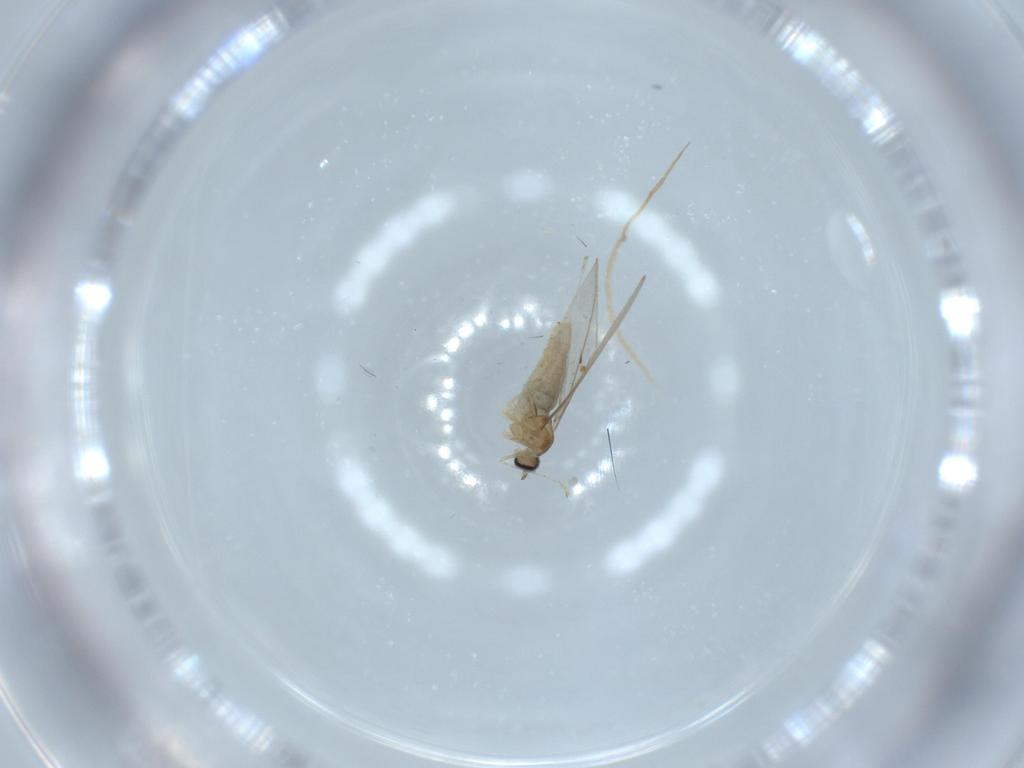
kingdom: Animalia
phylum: Arthropoda
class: Insecta
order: Diptera
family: Cecidomyiidae
